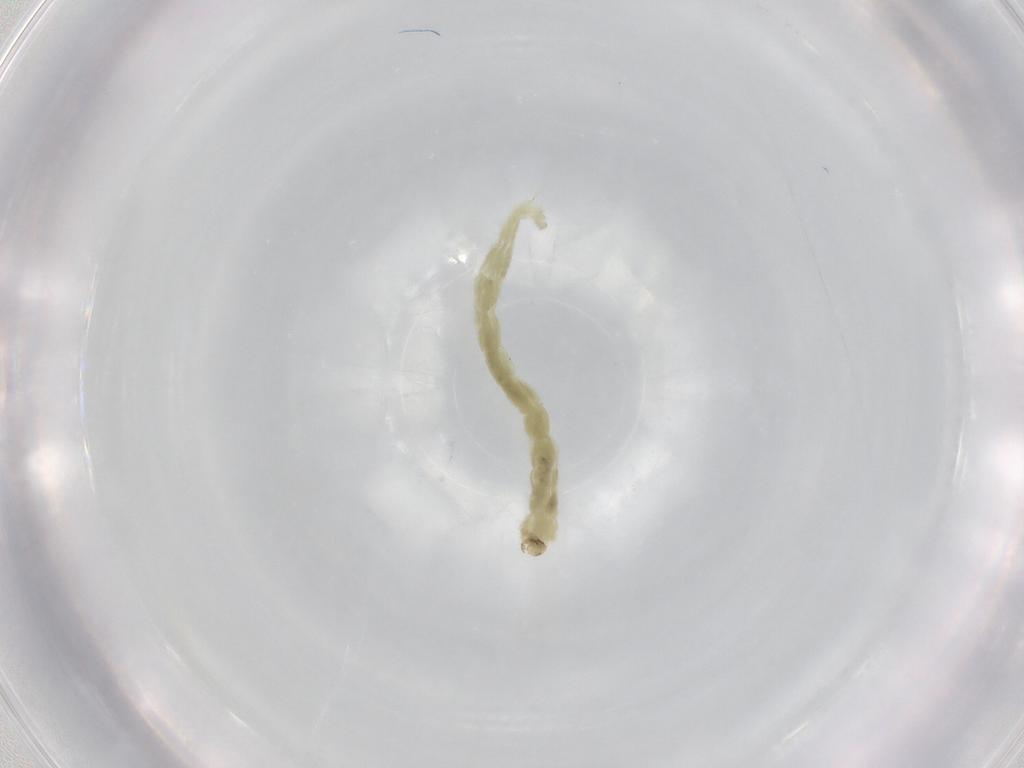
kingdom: Animalia
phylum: Arthropoda
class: Insecta
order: Diptera
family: Chironomidae
